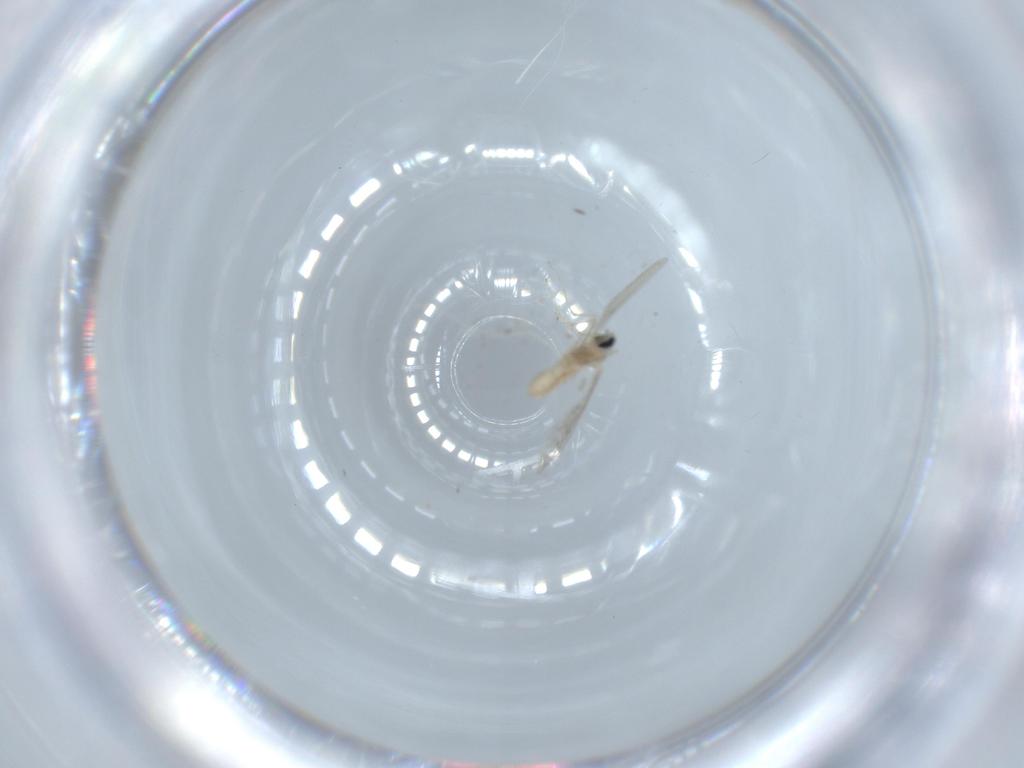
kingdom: Animalia
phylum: Arthropoda
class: Insecta
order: Diptera
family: Cecidomyiidae
